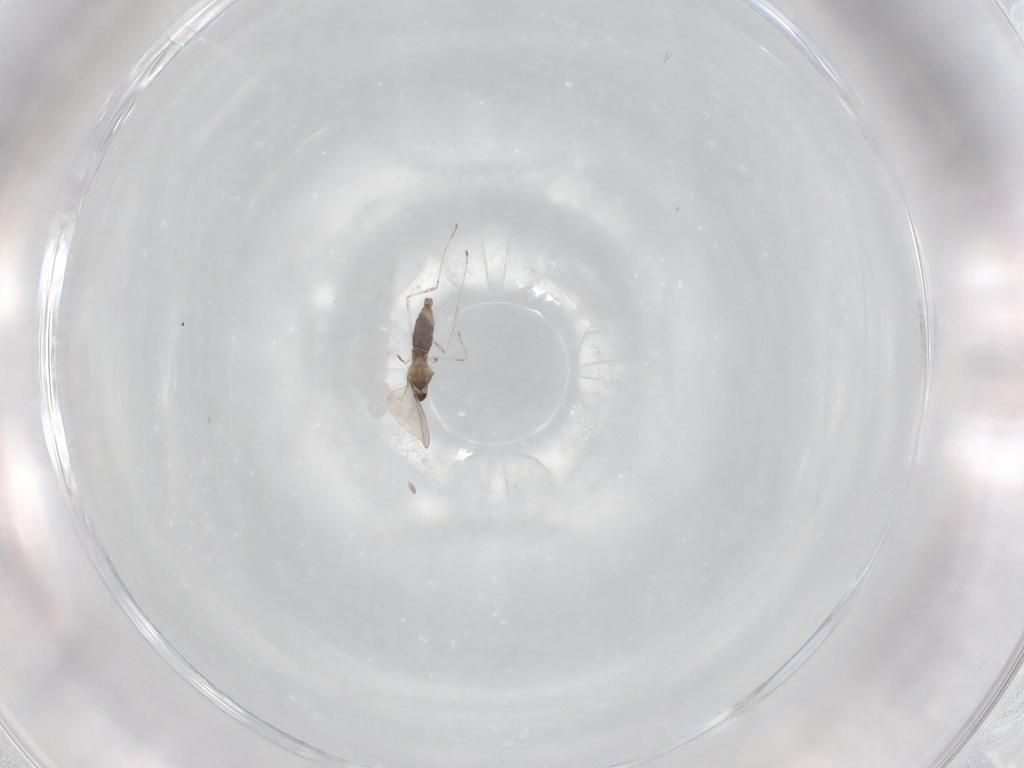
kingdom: Animalia
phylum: Arthropoda
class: Insecta
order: Diptera
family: Cecidomyiidae
